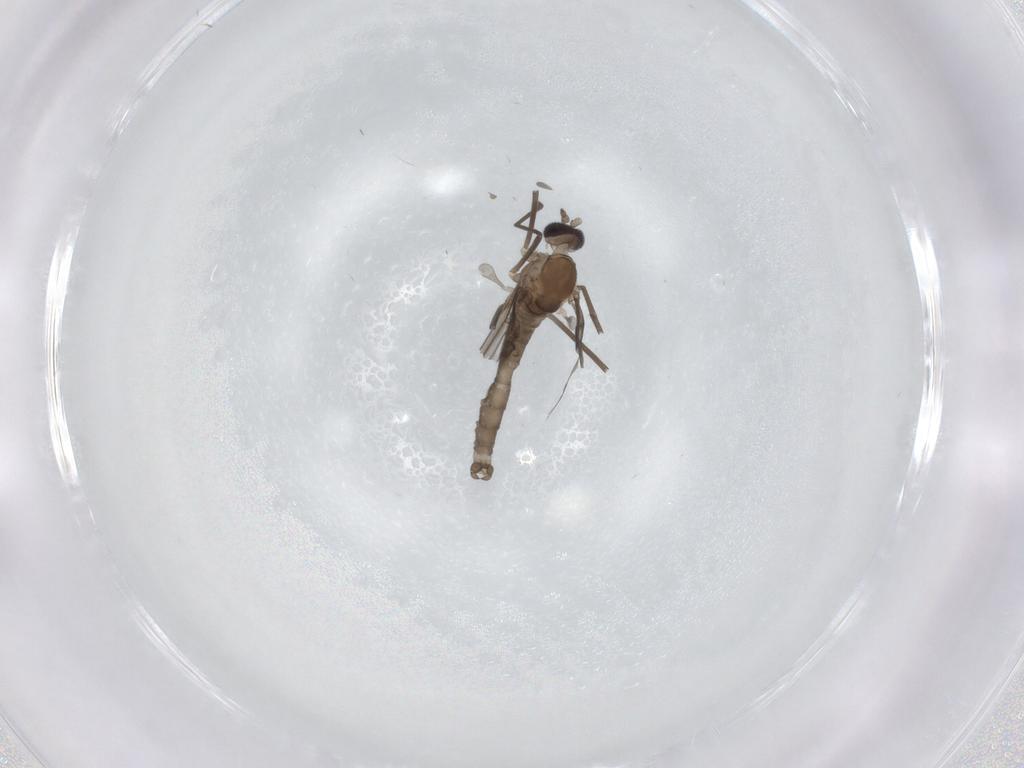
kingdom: Animalia
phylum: Arthropoda
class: Insecta
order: Diptera
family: Cecidomyiidae
